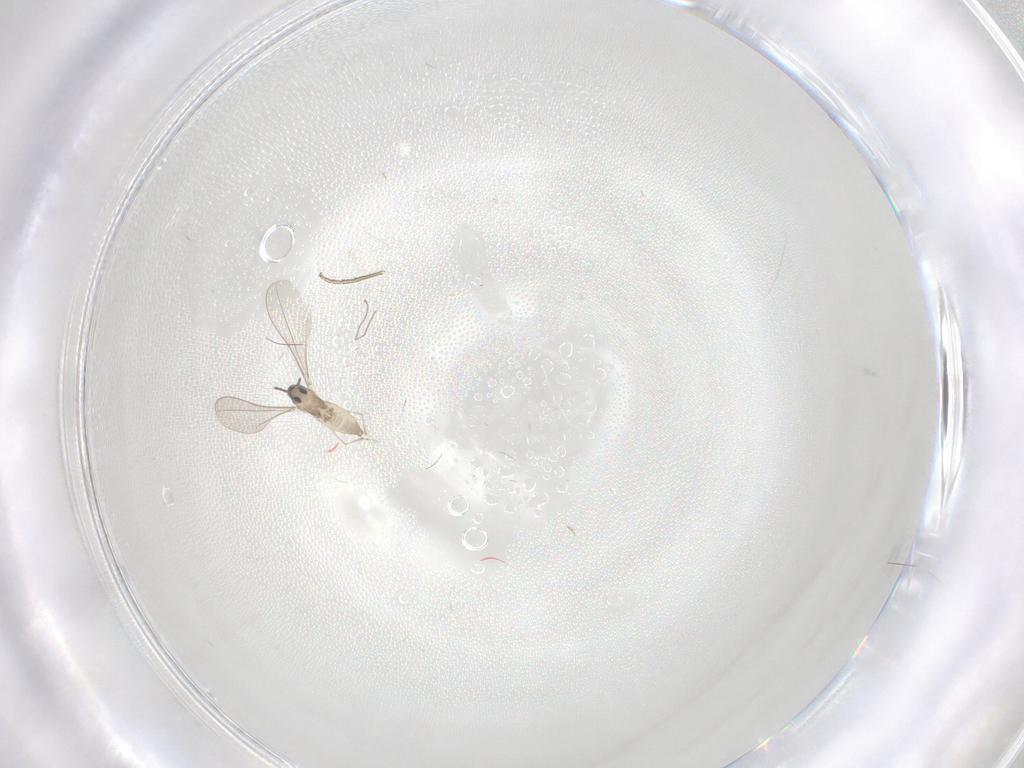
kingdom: Animalia
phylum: Arthropoda
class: Insecta
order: Diptera
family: Cecidomyiidae
